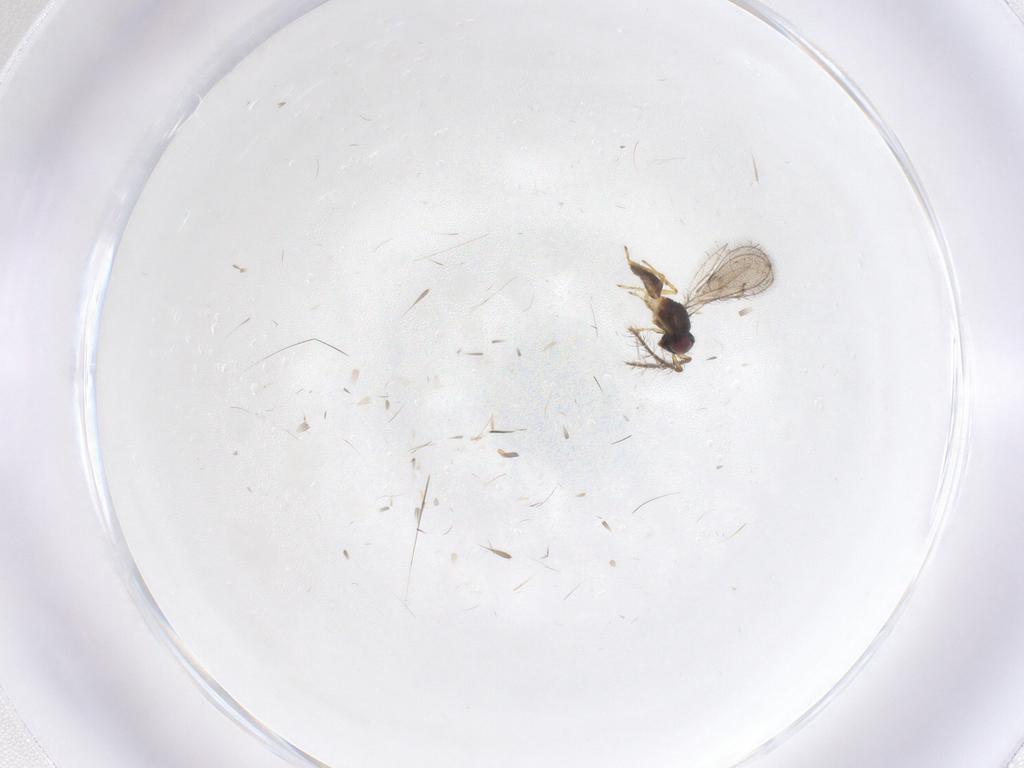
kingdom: Animalia
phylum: Arthropoda
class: Insecta
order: Hymenoptera
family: Eulophidae
